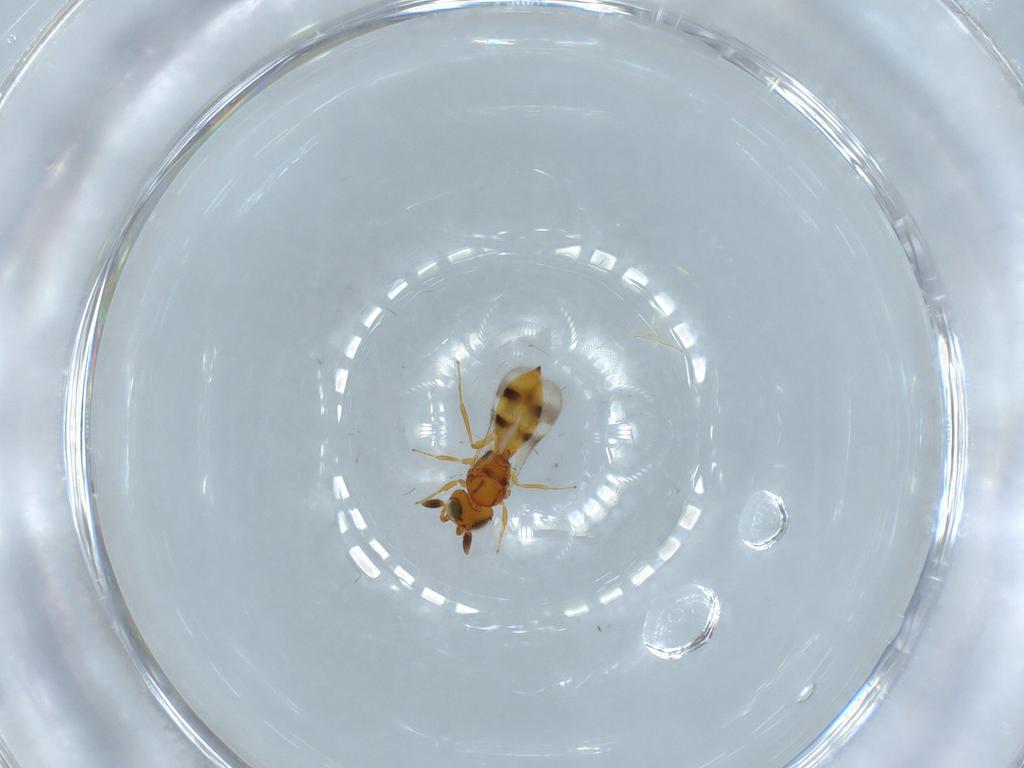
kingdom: Animalia
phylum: Arthropoda
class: Insecta
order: Hymenoptera
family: Scelionidae
